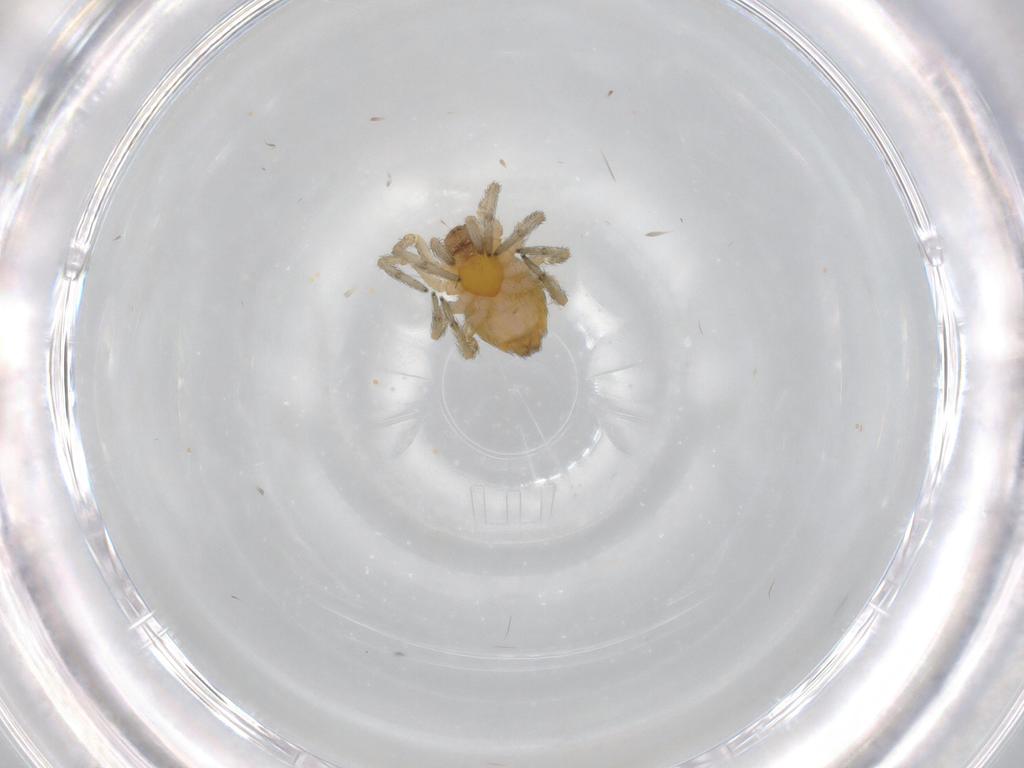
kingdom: Animalia
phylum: Arthropoda
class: Arachnida
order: Araneae
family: Dictynidae
